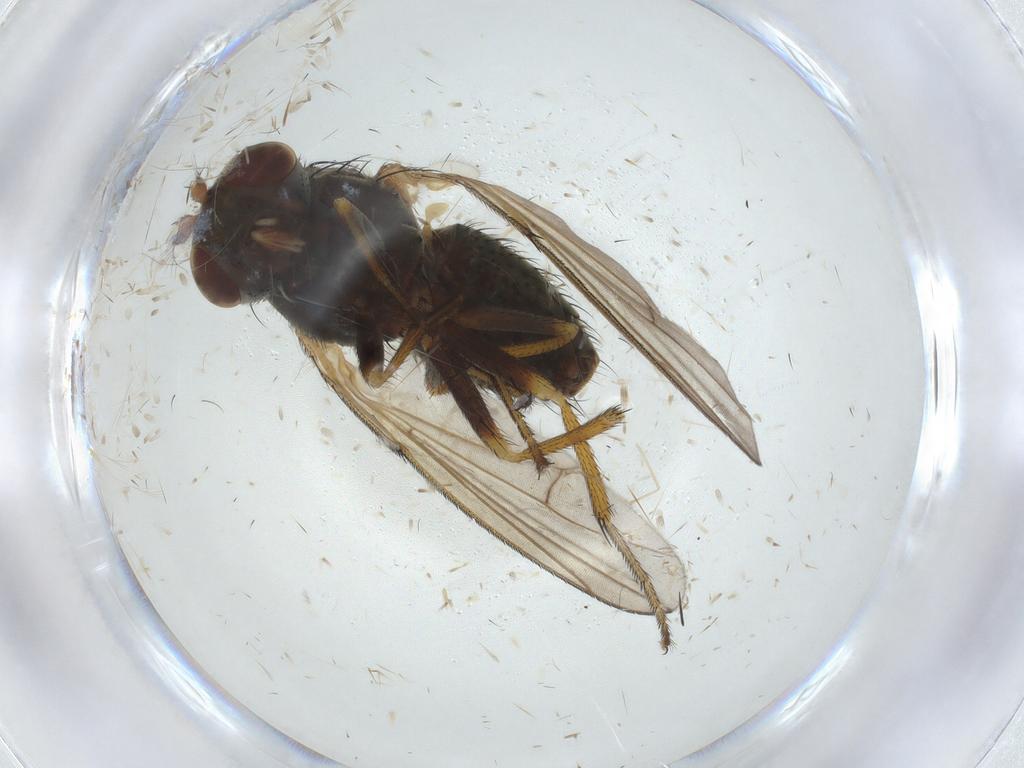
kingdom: Animalia
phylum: Arthropoda
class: Insecta
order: Diptera
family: Ephydridae
